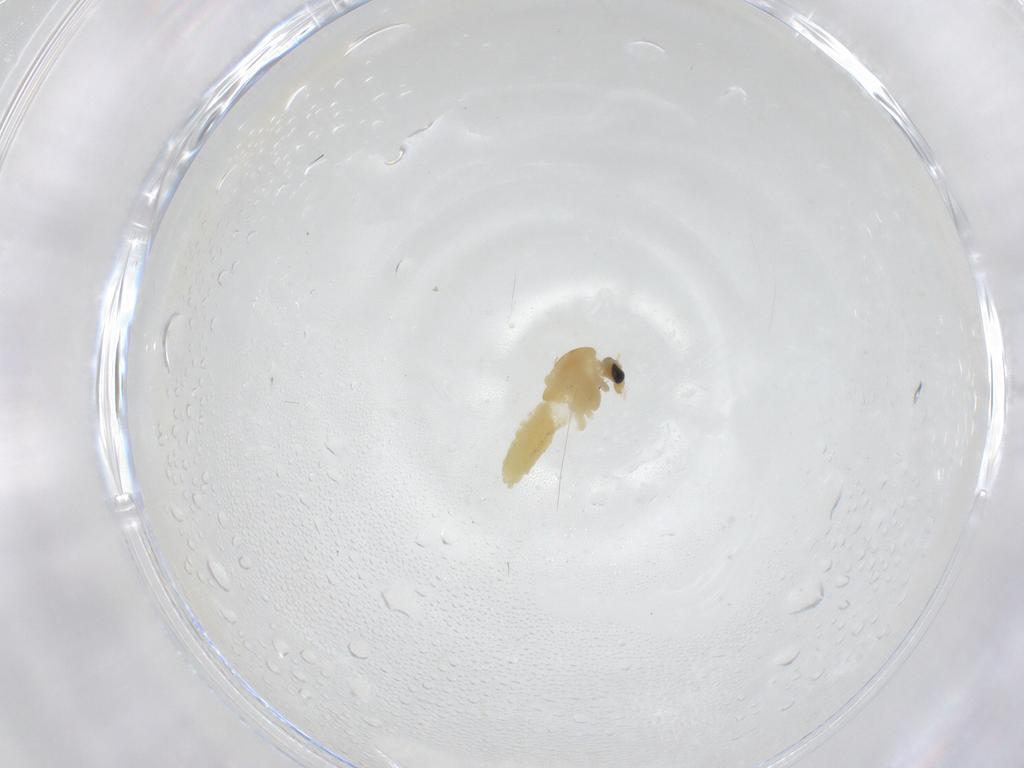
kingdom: Animalia
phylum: Arthropoda
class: Insecta
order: Diptera
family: Chironomidae
